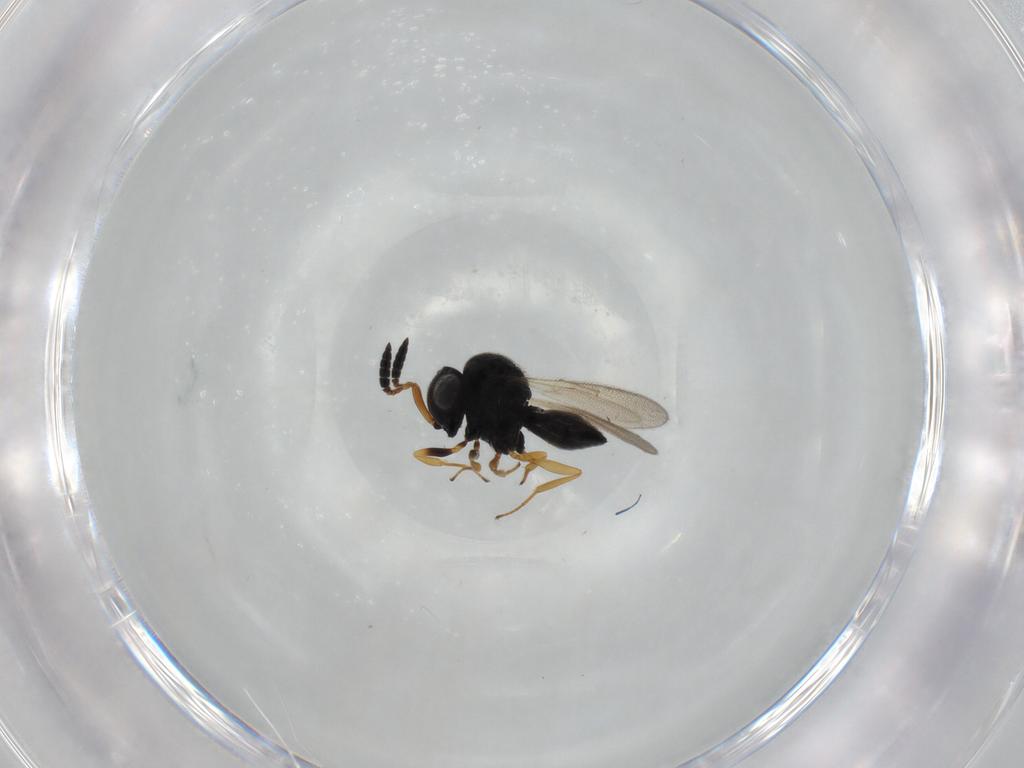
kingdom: Animalia
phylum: Arthropoda
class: Insecta
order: Hymenoptera
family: Scelionidae
